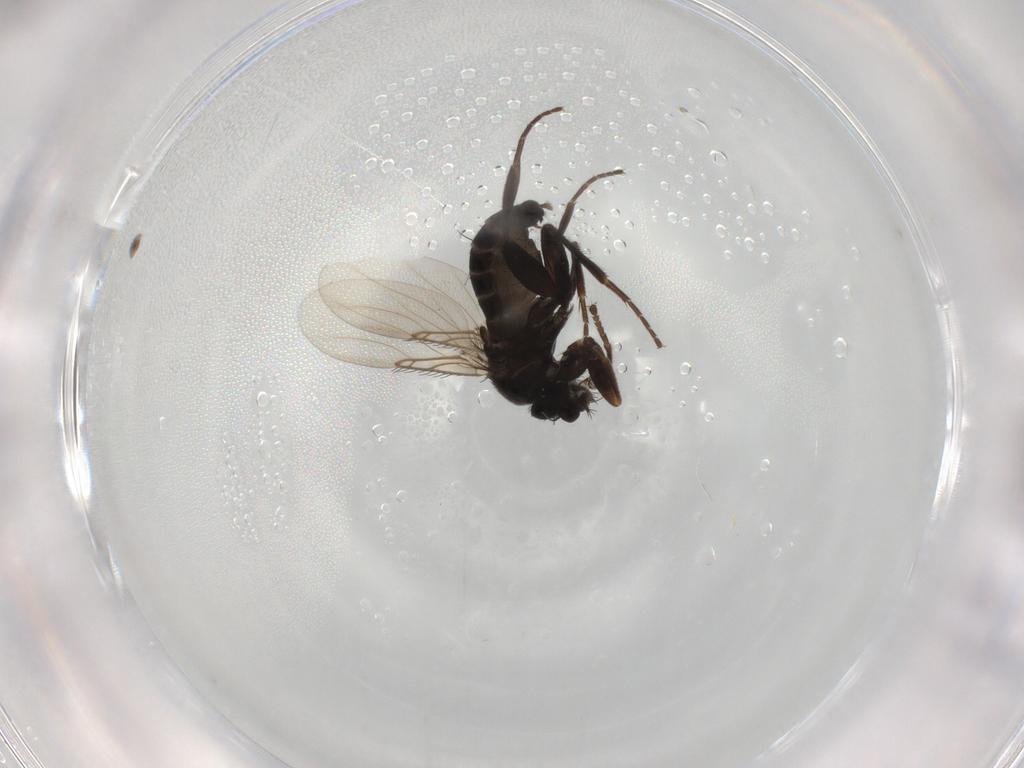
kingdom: Animalia
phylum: Arthropoda
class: Insecta
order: Diptera
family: Phoridae
